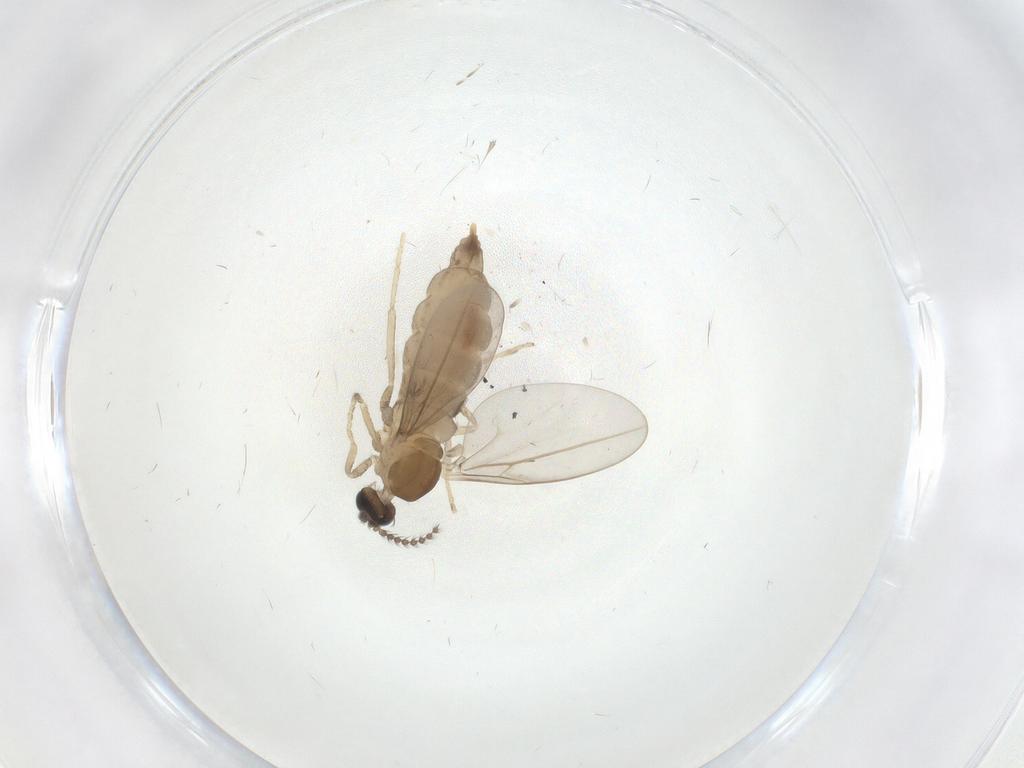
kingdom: Animalia
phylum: Arthropoda
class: Insecta
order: Diptera
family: Cecidomyiidae
